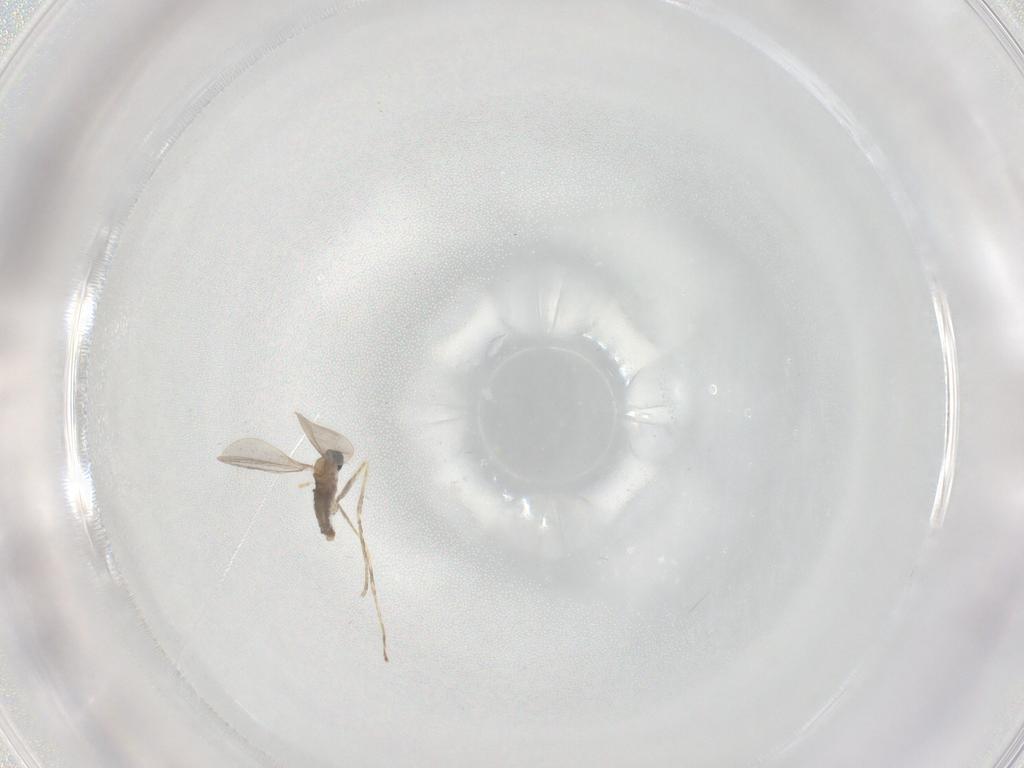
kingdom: Animalia
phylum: Arthropoda
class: Insecta
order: Diptera
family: Cecidomyiidae
